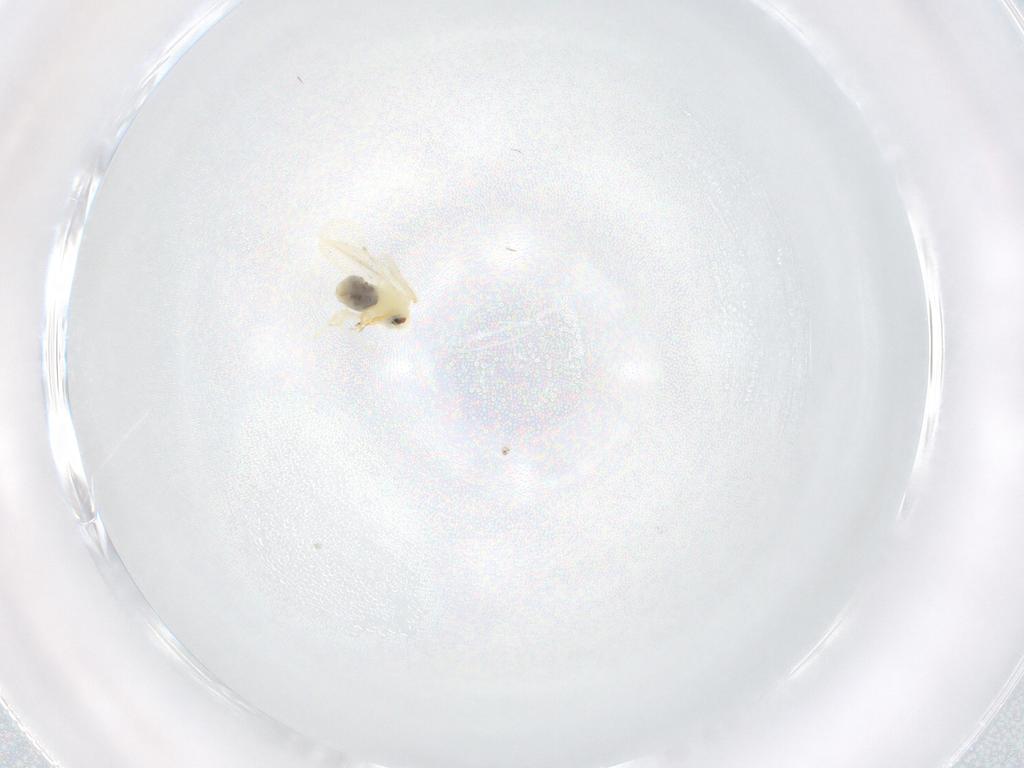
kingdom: Animalia
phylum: Arthropoda
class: Insecta
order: Hemiptera
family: Aleyrodidae
